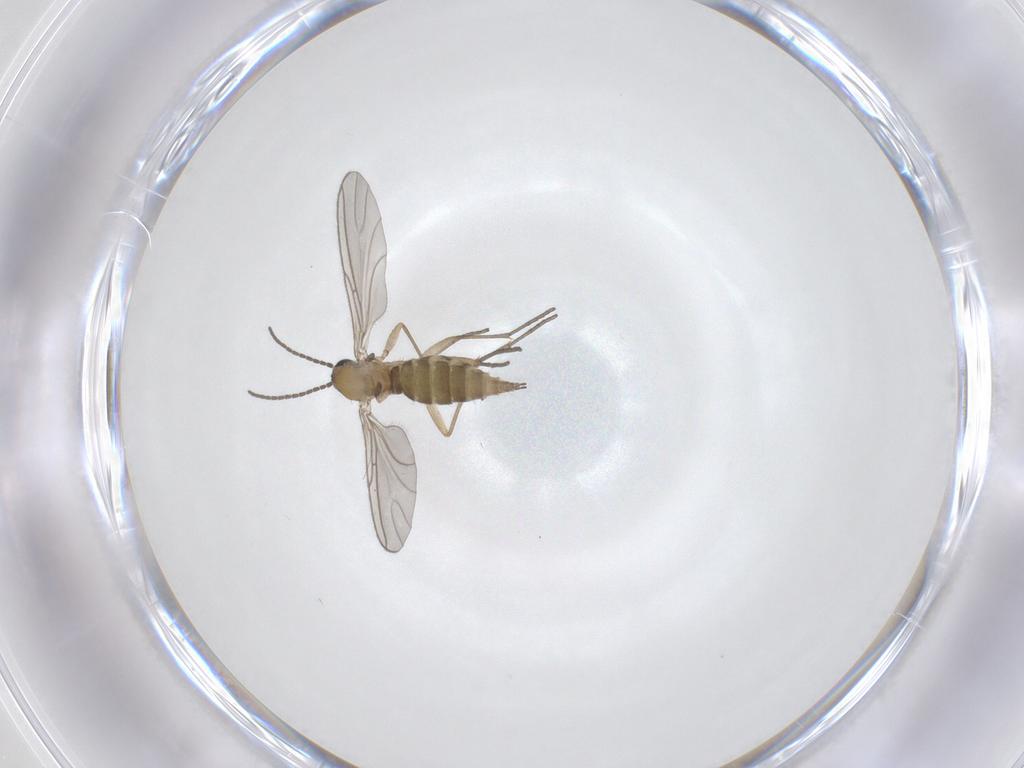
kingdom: Animalia
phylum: Arthropoda
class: Insecta
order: Diptera
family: Sciaridae
